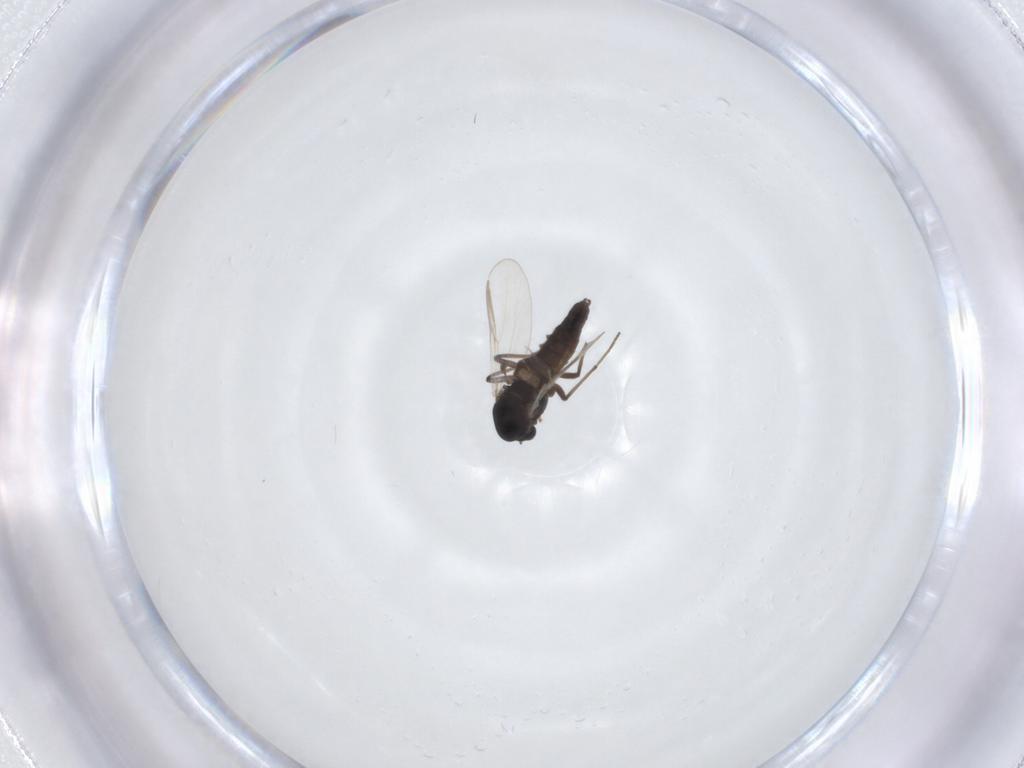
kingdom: Animalia
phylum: Arthropoda
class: Insecta
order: Diptera
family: Chironomidae
